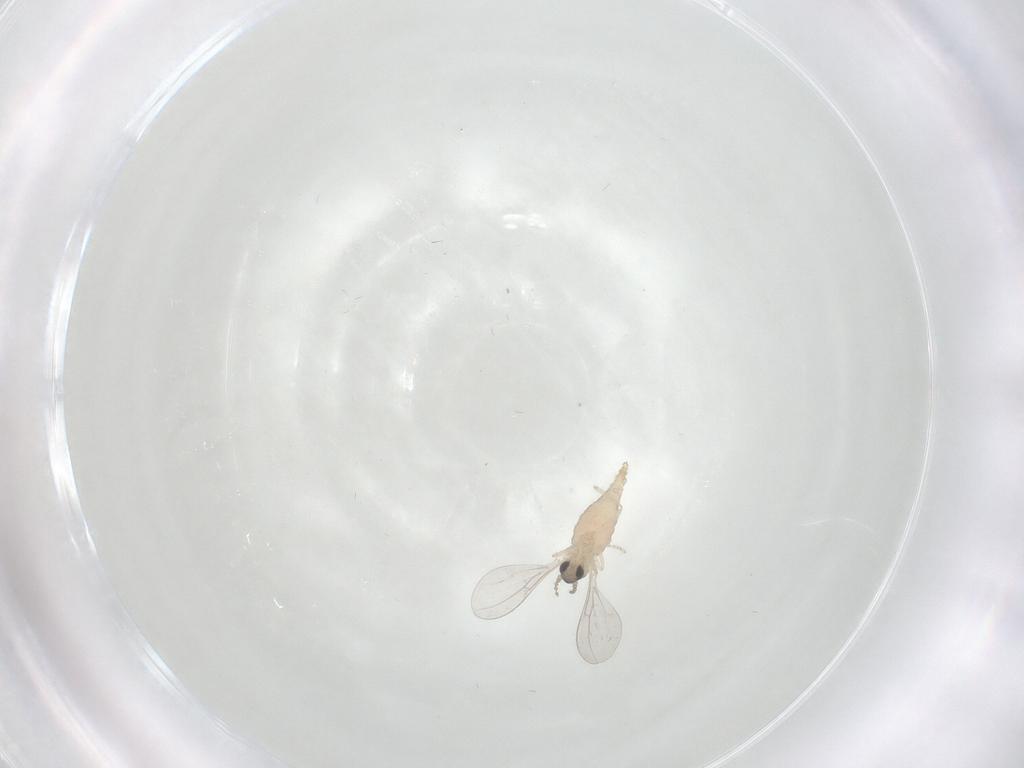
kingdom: Animalia
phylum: Arthropoda
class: Insecta
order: Diptera
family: Cecidomyiidae
